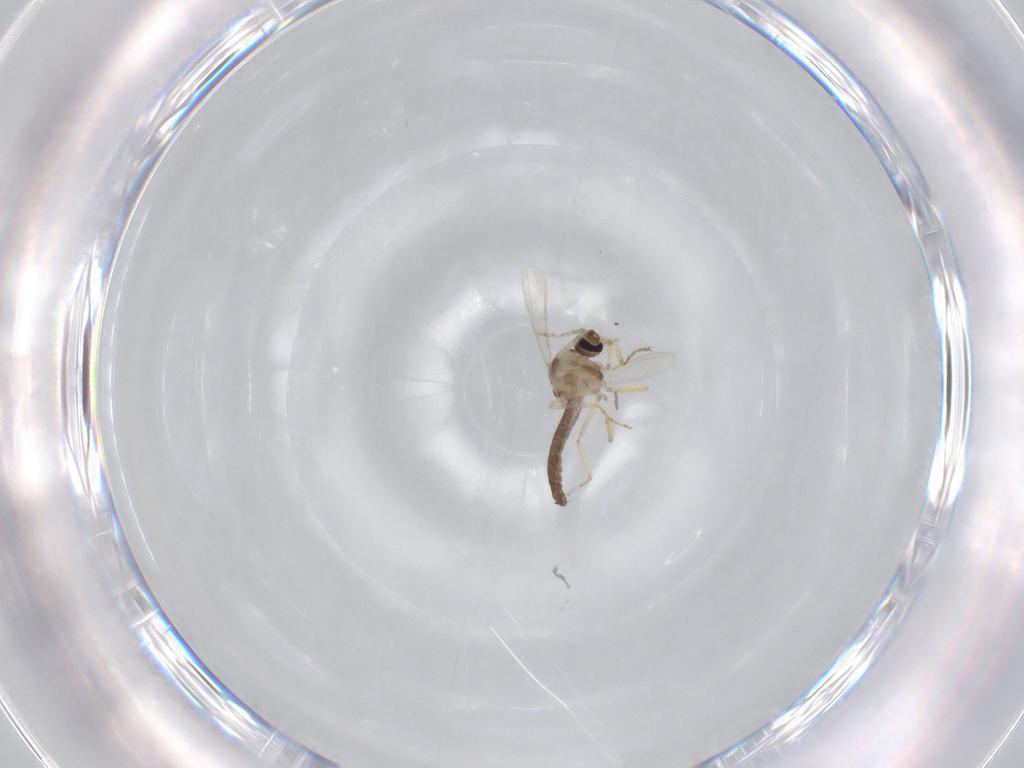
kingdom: Animalia
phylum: Arthropoda
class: Insecta
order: Diptera
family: Ceratopogonidae
